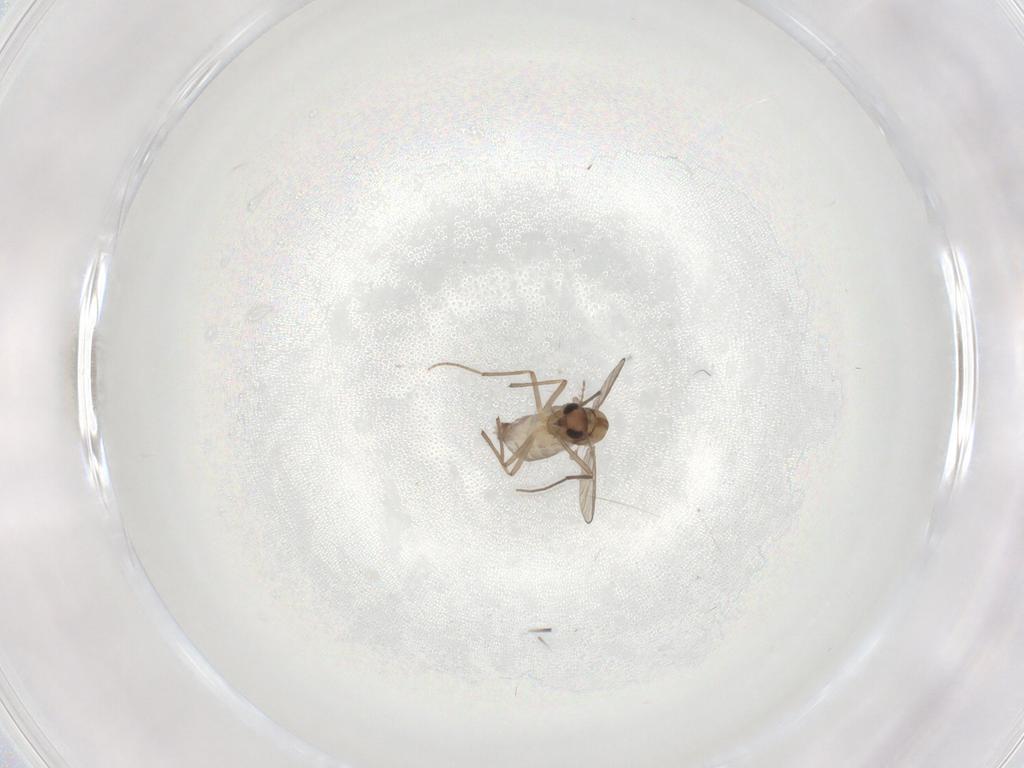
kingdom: Animalia
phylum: Arthropoda
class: Insecta
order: Diptera
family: Chironomidae
